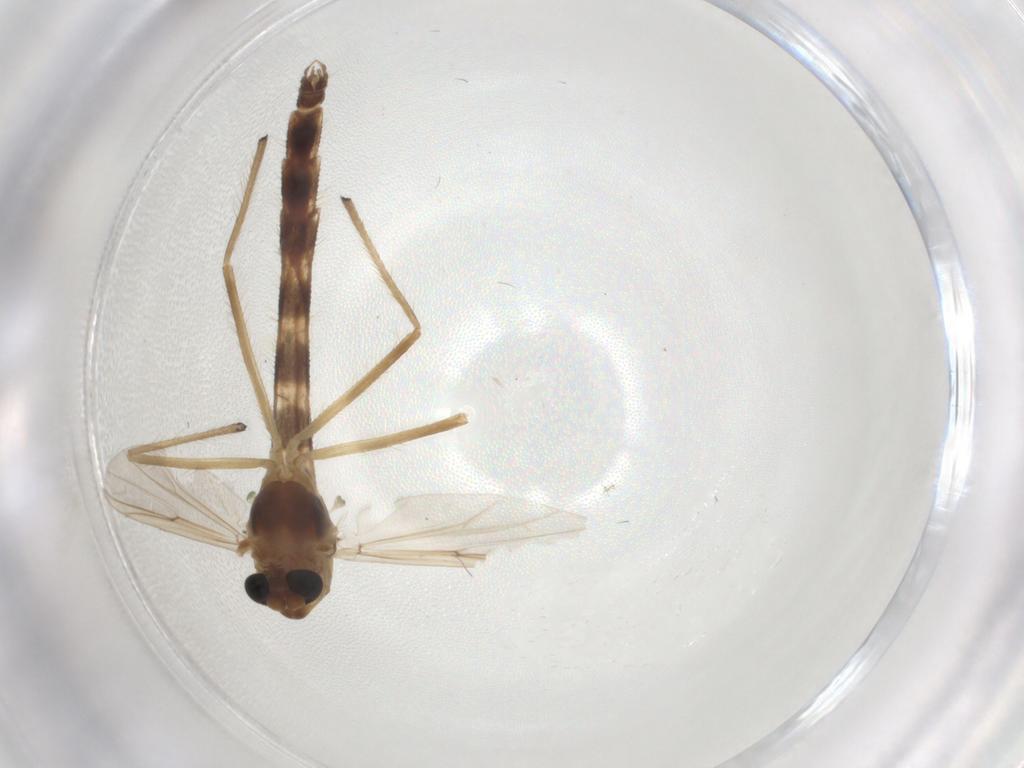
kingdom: Animalia
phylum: Arthropoda
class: Insecta
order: Diptera
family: Chironomidae
